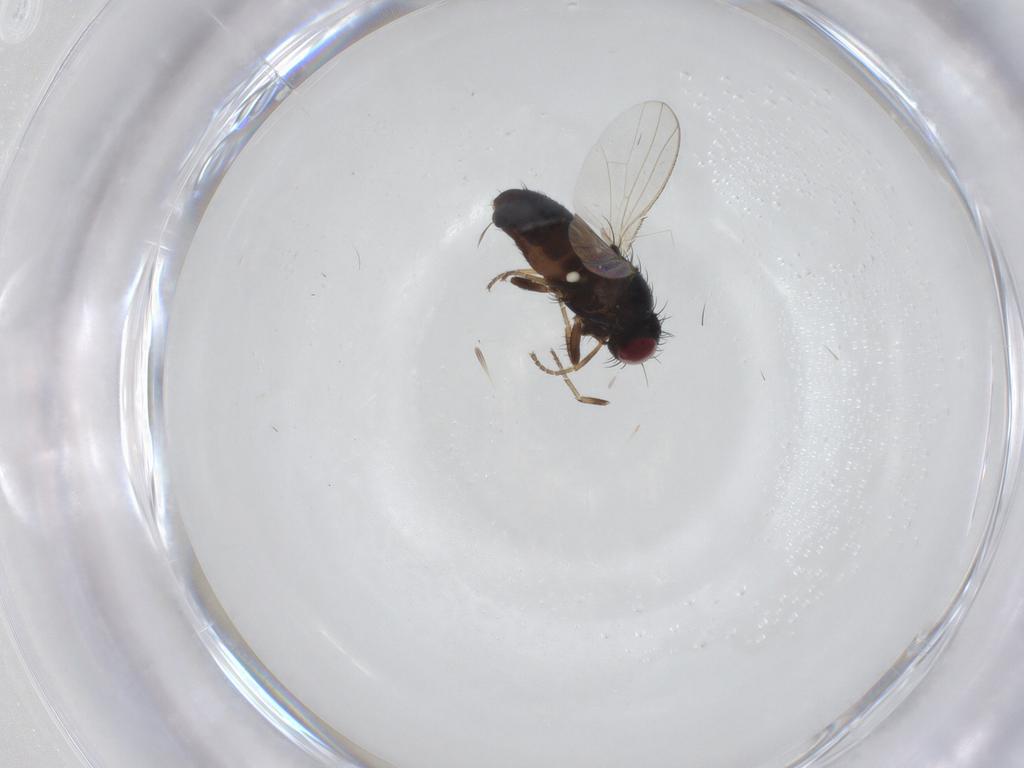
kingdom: Animalia
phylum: Arthropoda
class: Insecta
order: Diptera
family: Carnidae
